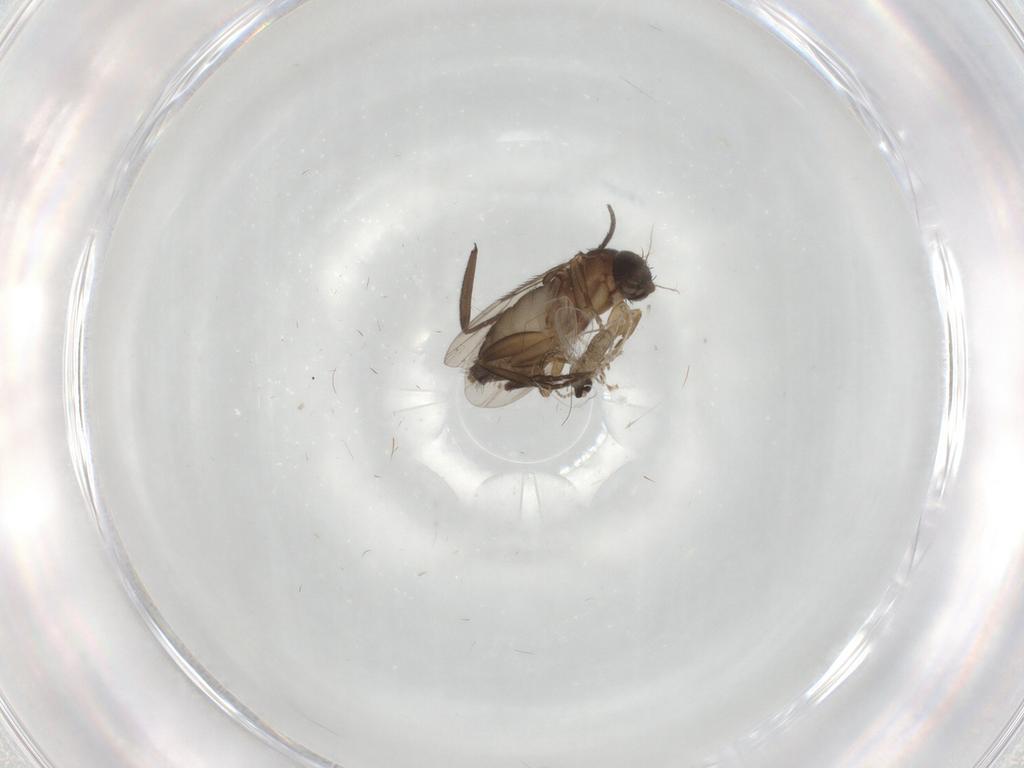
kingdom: Animalia
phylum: Arthropoda
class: Insecta
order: Diptera
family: Phoridae
